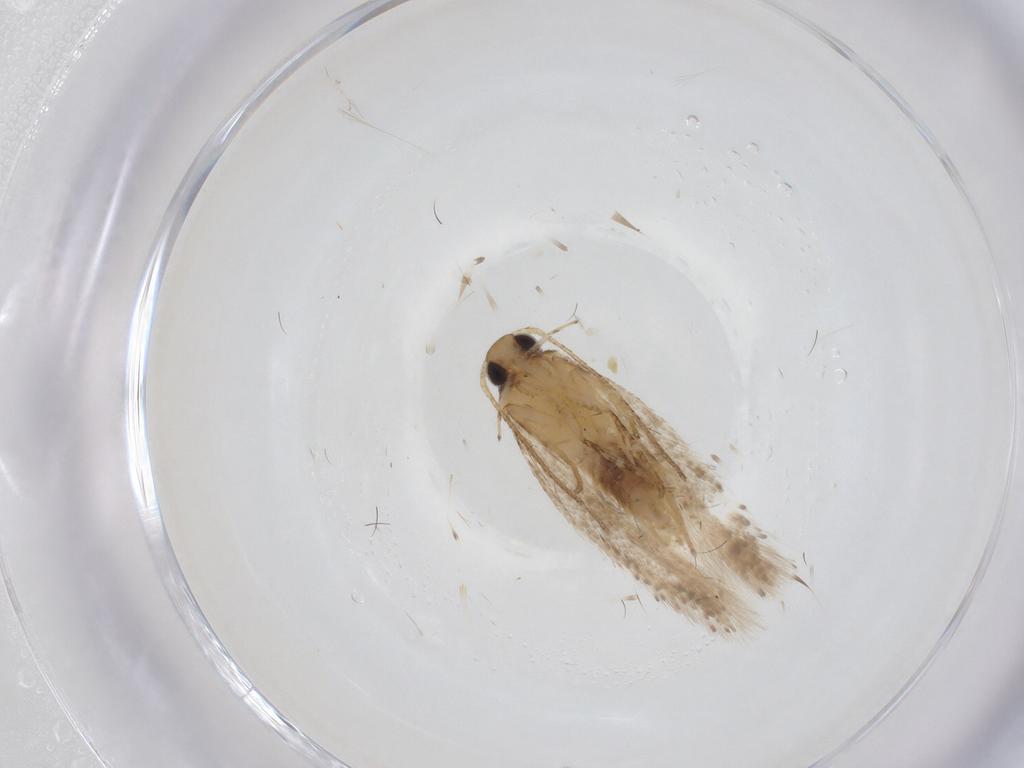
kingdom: Animalia
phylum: Arthropoda
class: Insecta
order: Lepidoptera
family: Gelechiidae
